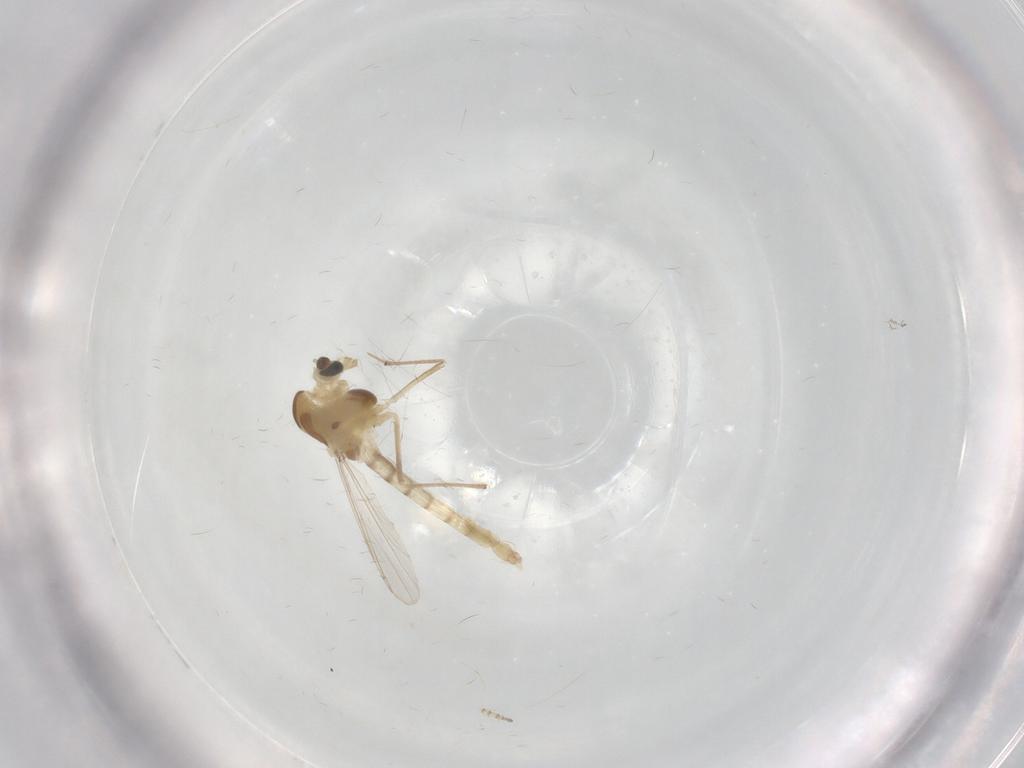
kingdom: Animalia
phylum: Arthropoda
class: Insecta
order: Diptera
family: Chironomidae
